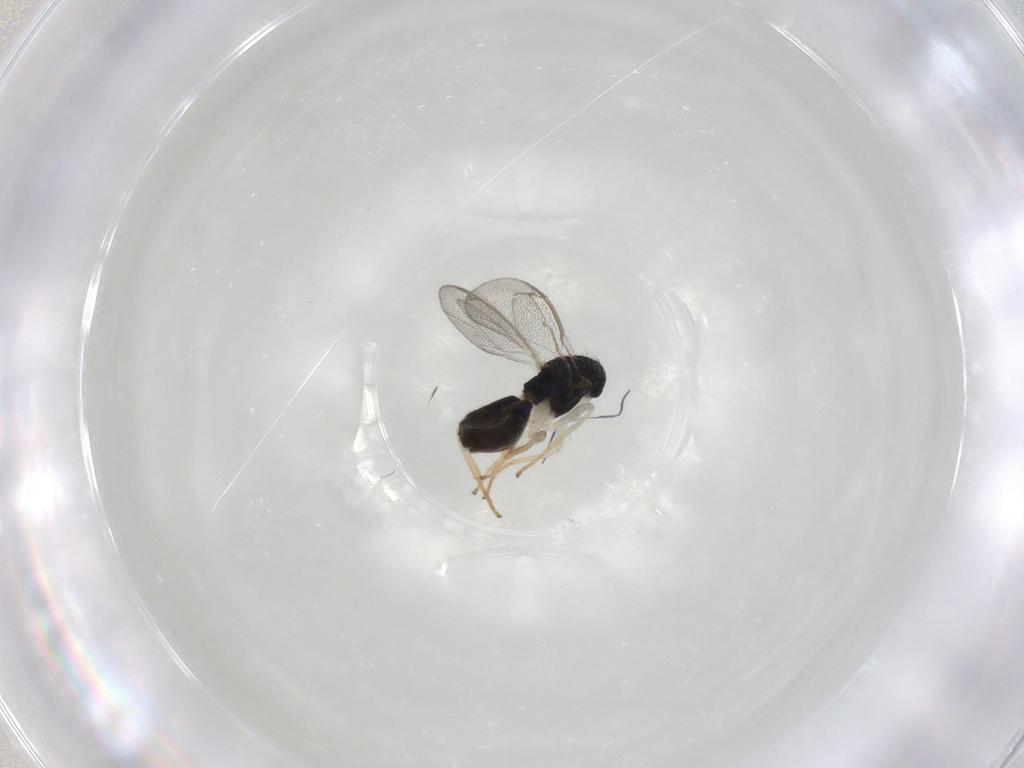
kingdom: Animalia
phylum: Arthropoda
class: Insecta
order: Hymenoptera
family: Eulophidae
